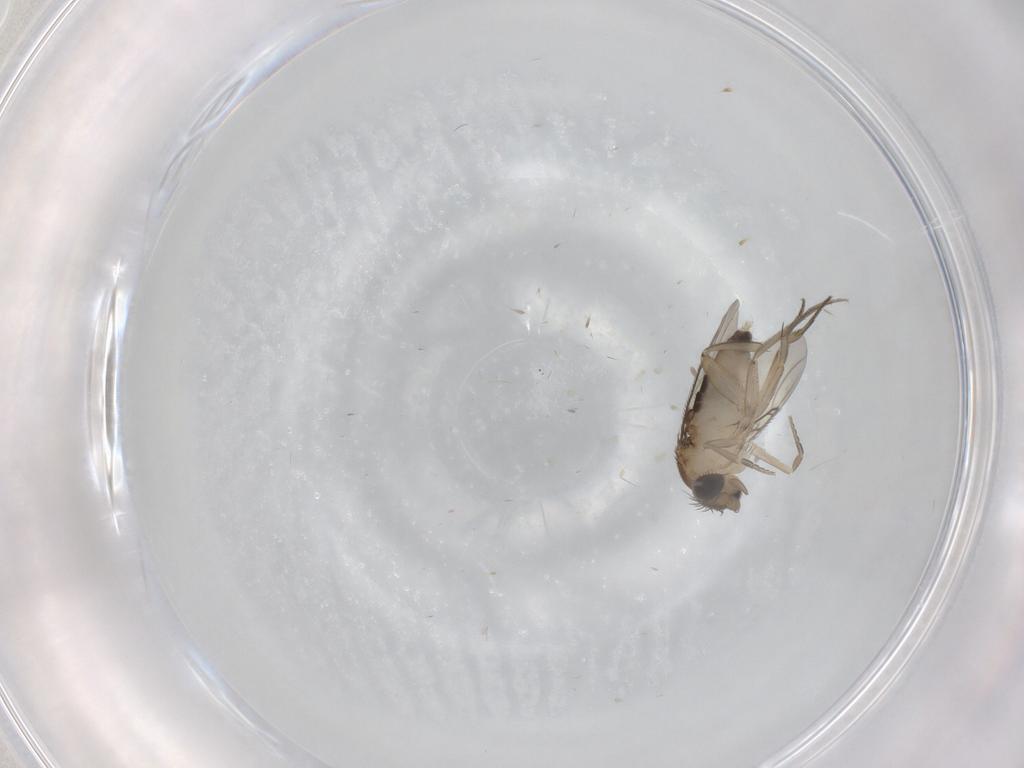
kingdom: Animalia
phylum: Arthropoda
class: Insecta
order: Diptera
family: Phoridae
